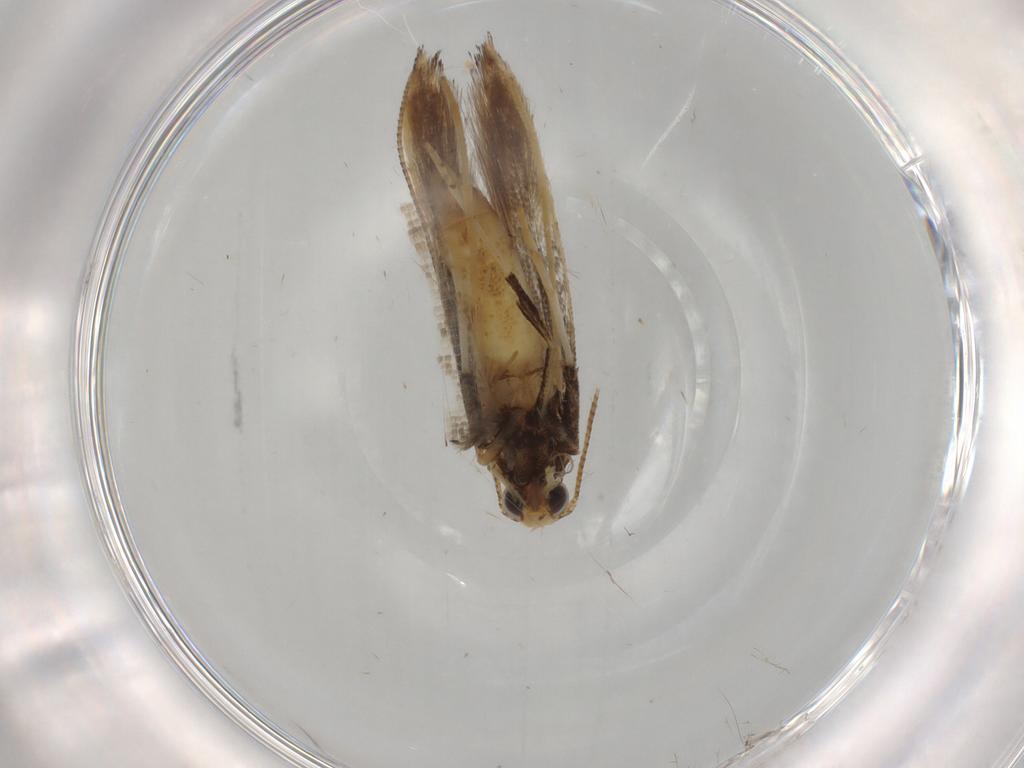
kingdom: Animalia
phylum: Arthropoda
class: Insecta
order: Lepidoptera
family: Gracillariidae
